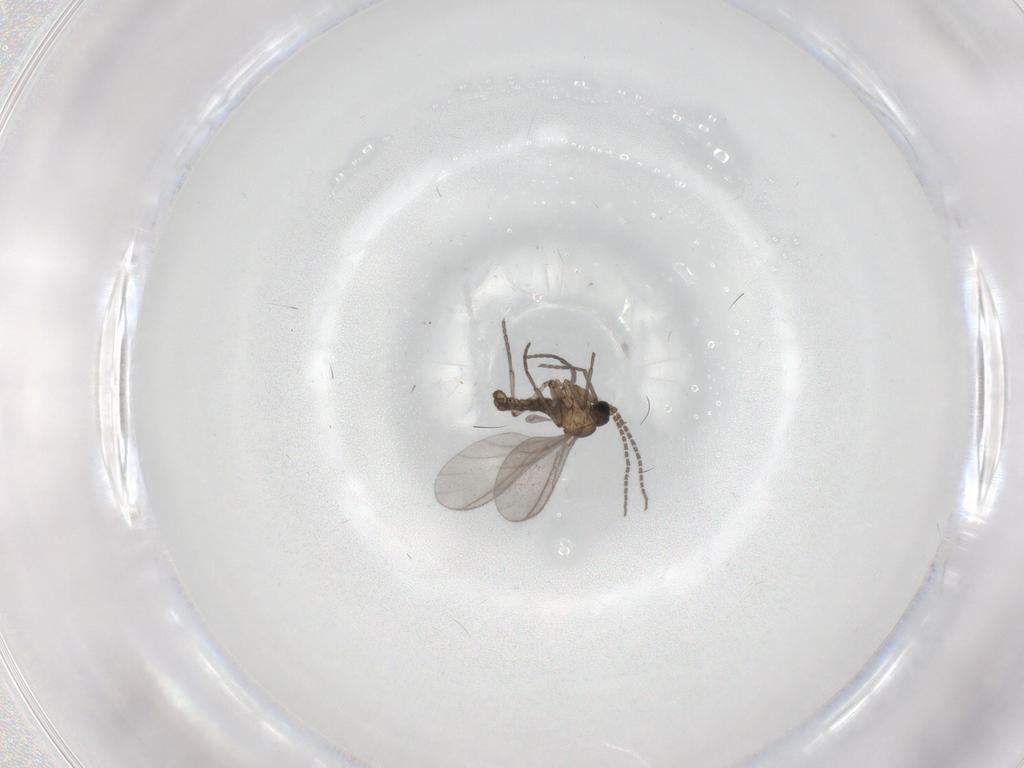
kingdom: Animalia
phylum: Arthropoda
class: Insecta
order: Diptera
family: Sciaridae
